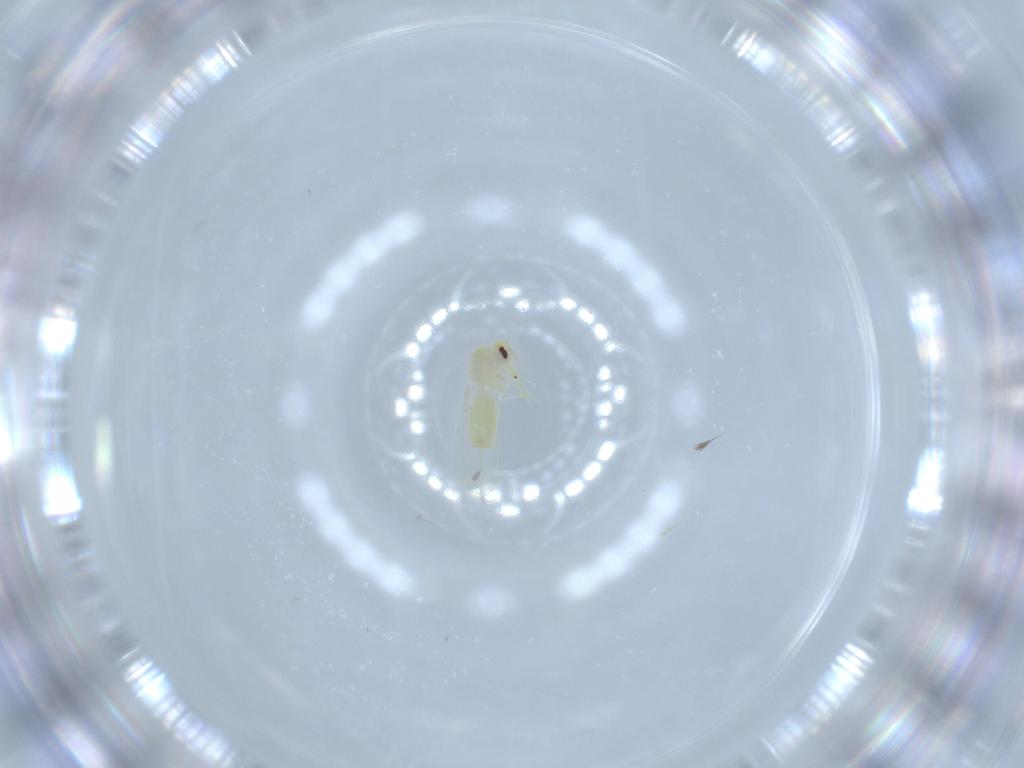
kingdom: Animalia
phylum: Arthropoda
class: Insecta
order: Hemiptera
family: Aleyrodidae
